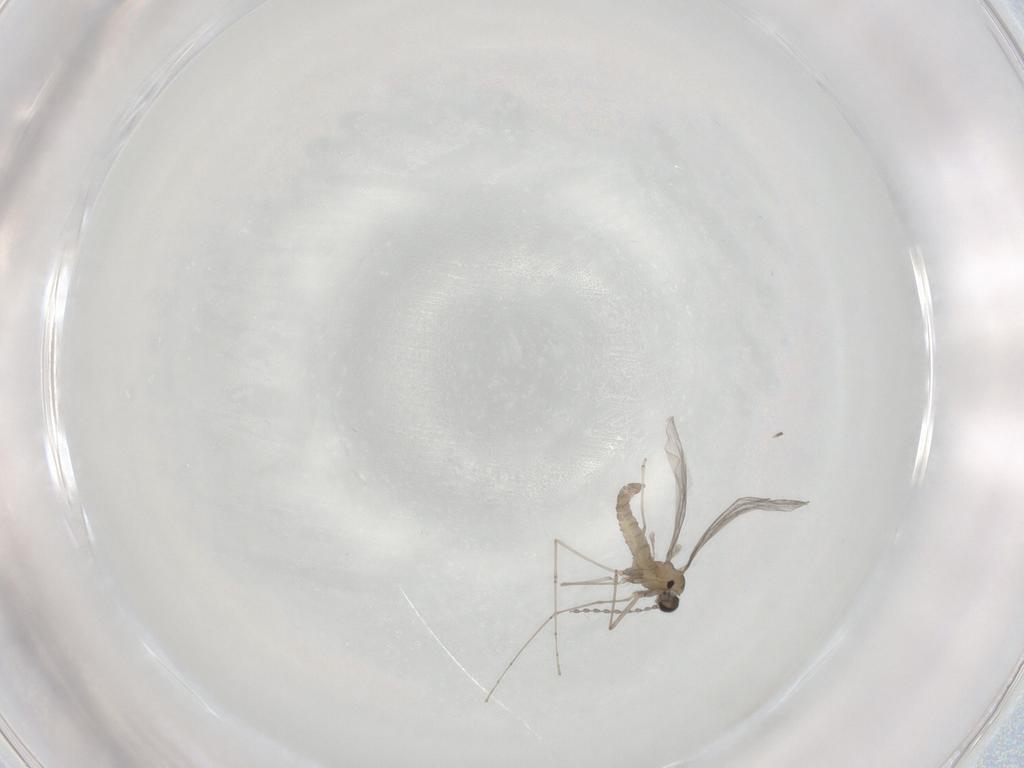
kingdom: Animalia
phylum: Arthropoda
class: Insecta
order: Diptera
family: Cecidomyiidae
